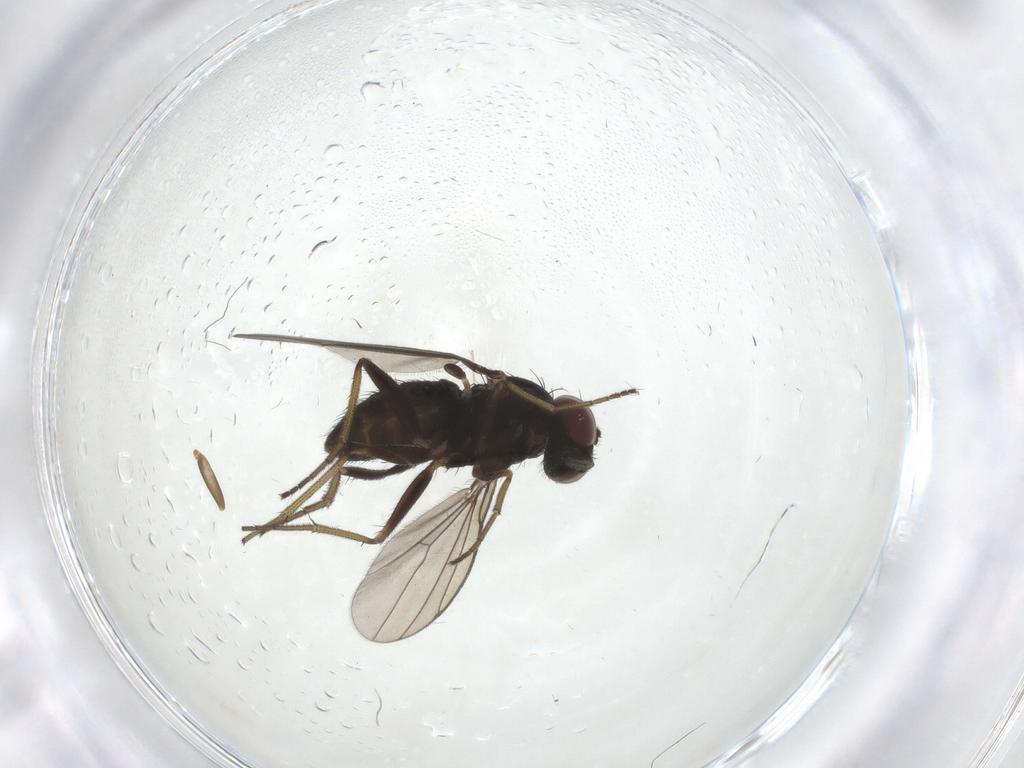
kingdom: Animalia
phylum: Arthropoda
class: Insecta
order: Diptera
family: Dolichopodidae
